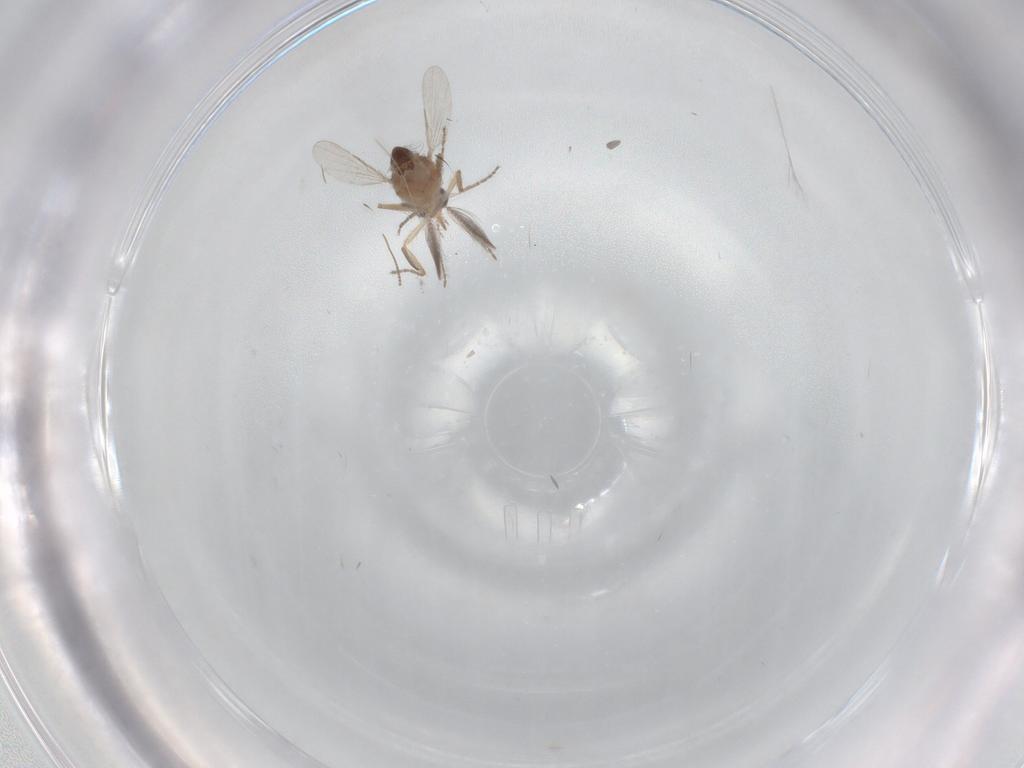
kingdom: Animalia
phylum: Arthropoda
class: Insecta
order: Diptera
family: Ceratopogonidae
